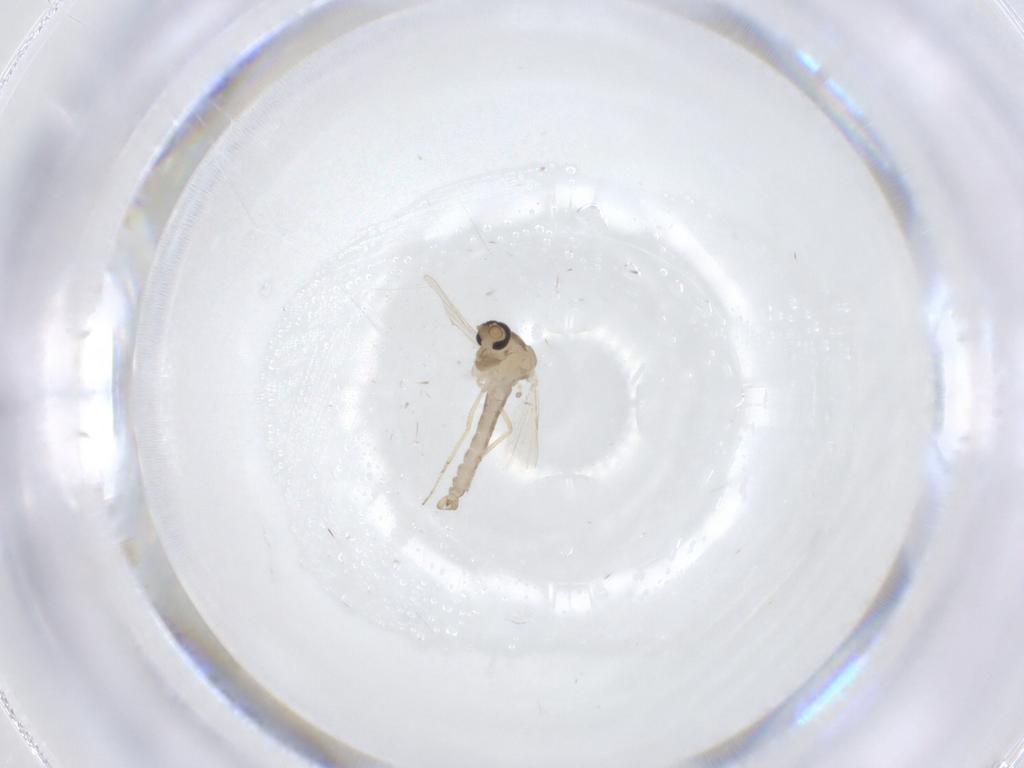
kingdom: Animalia
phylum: Arthropoda
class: Insecta
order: Diptera
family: Ceratopogonidae
